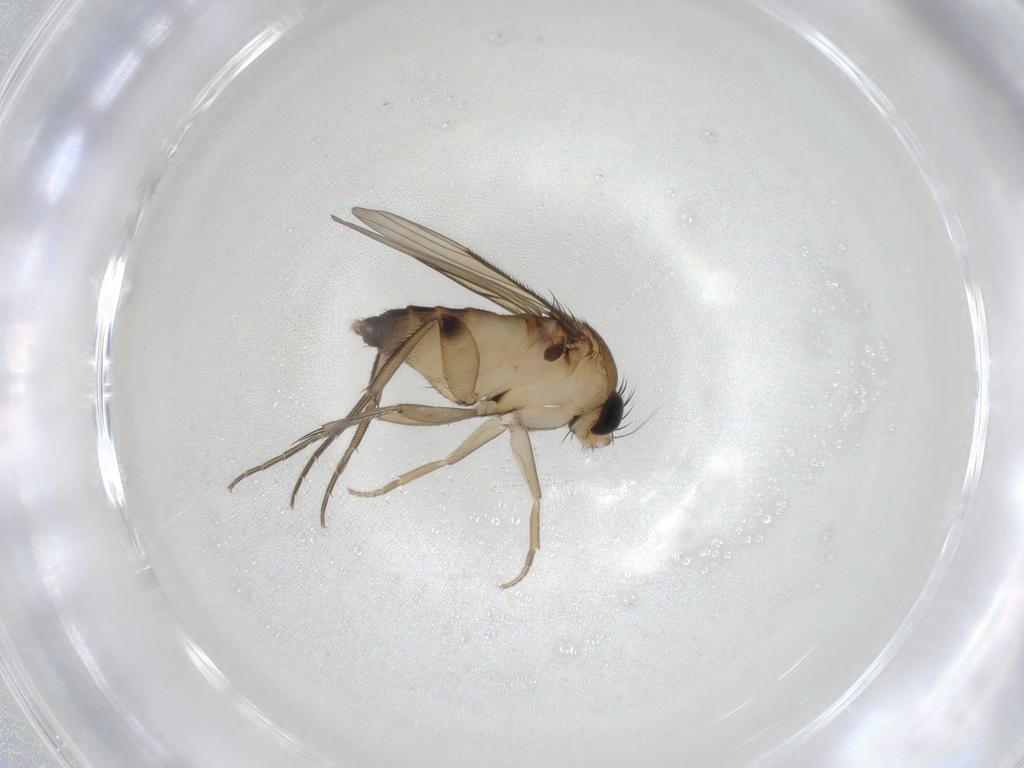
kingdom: Animalia
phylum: Arthropoda
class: Insecta
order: Diptera
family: Phoridae
